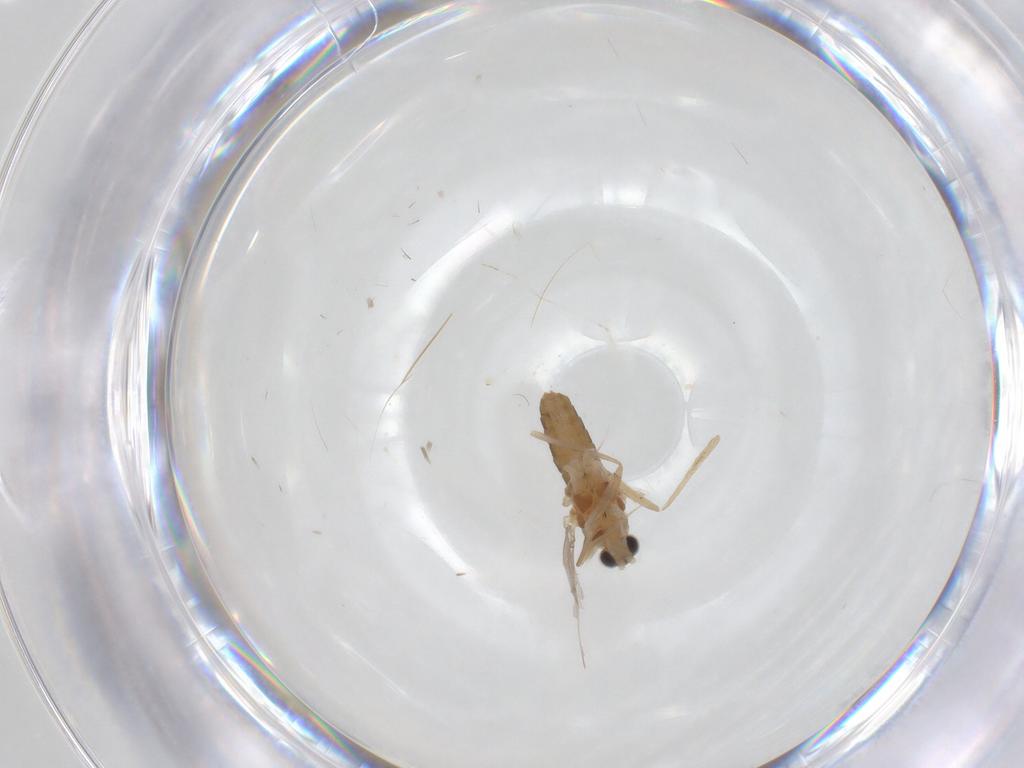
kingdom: Animalia
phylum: Arthropoda
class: Insecta
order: Diptera
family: Cecidomyiidae
